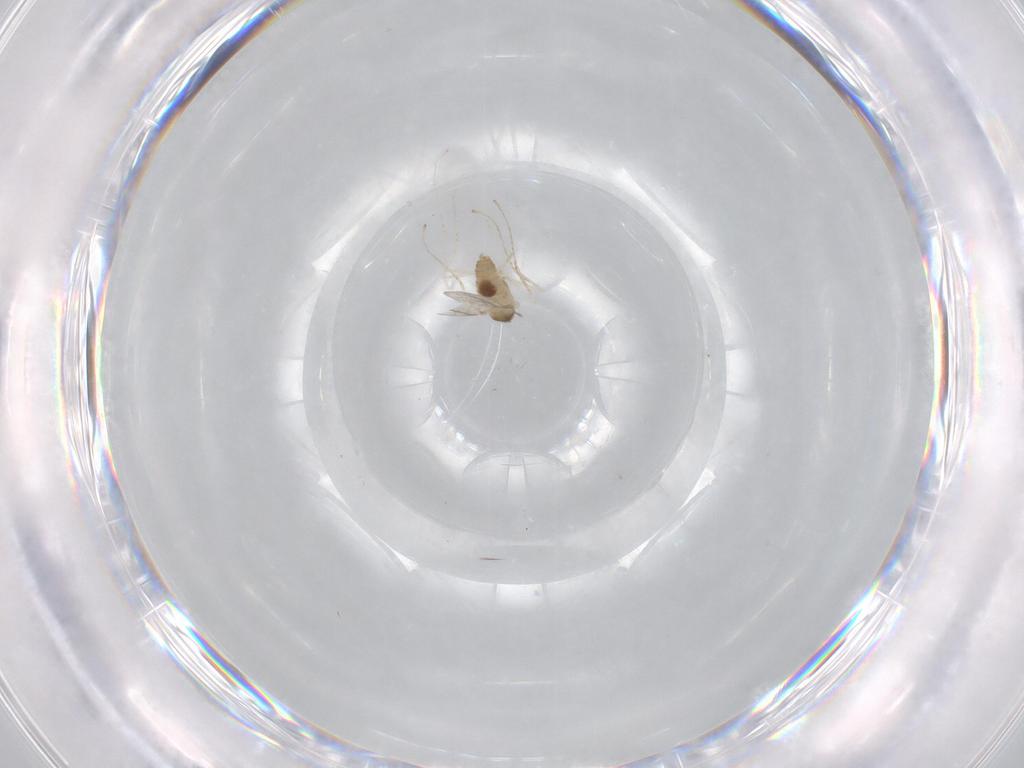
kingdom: Animalia
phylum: Arthropoda
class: Insecta
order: Diptera
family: Cecidomyiidae
